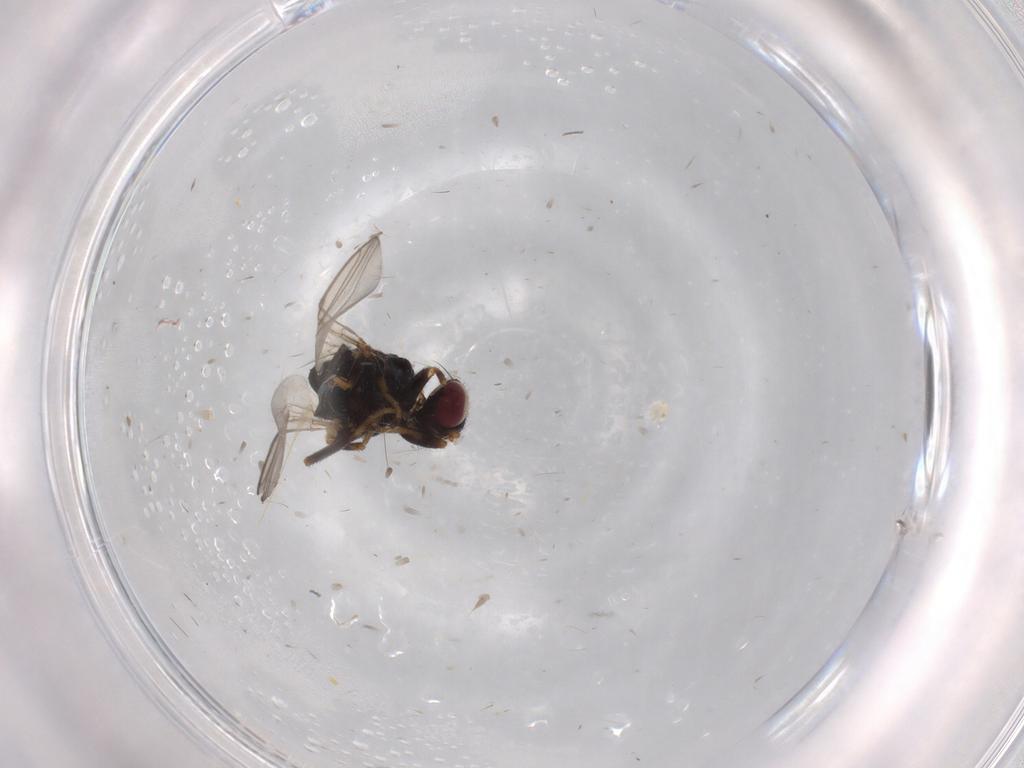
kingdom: Animalia
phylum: Arthropoda
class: Insecta
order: Diptera
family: Chloropidae
